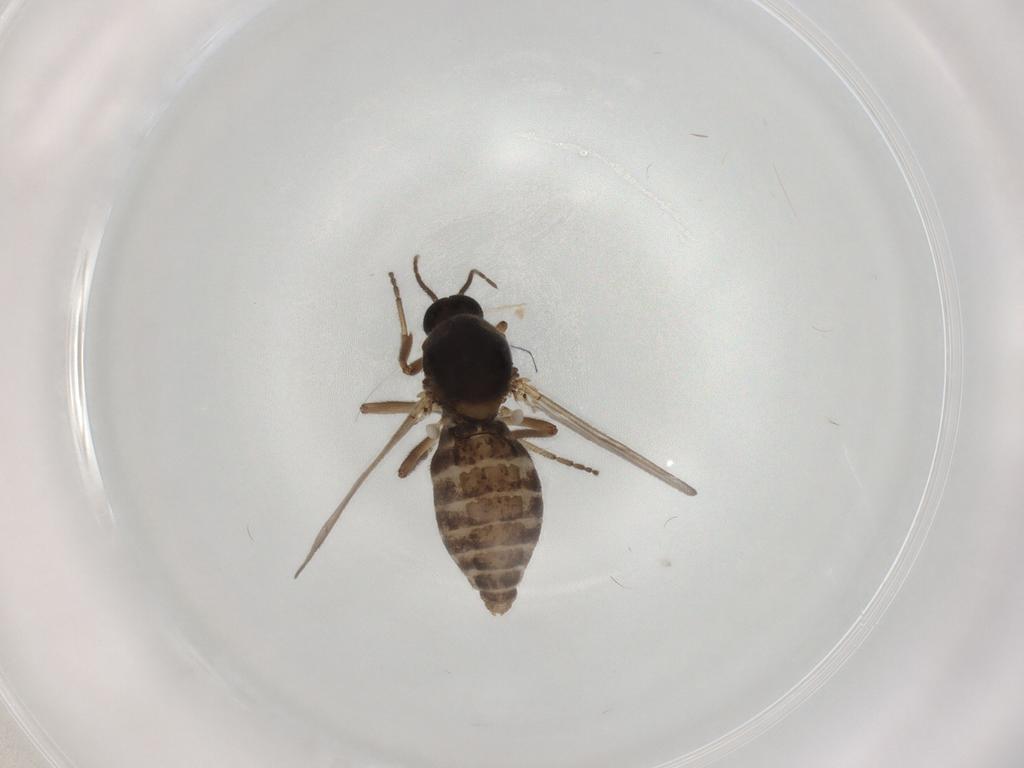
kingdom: Animalia
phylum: Arthropoda
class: Insecta
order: Diptera
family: Ceratopogonidae
